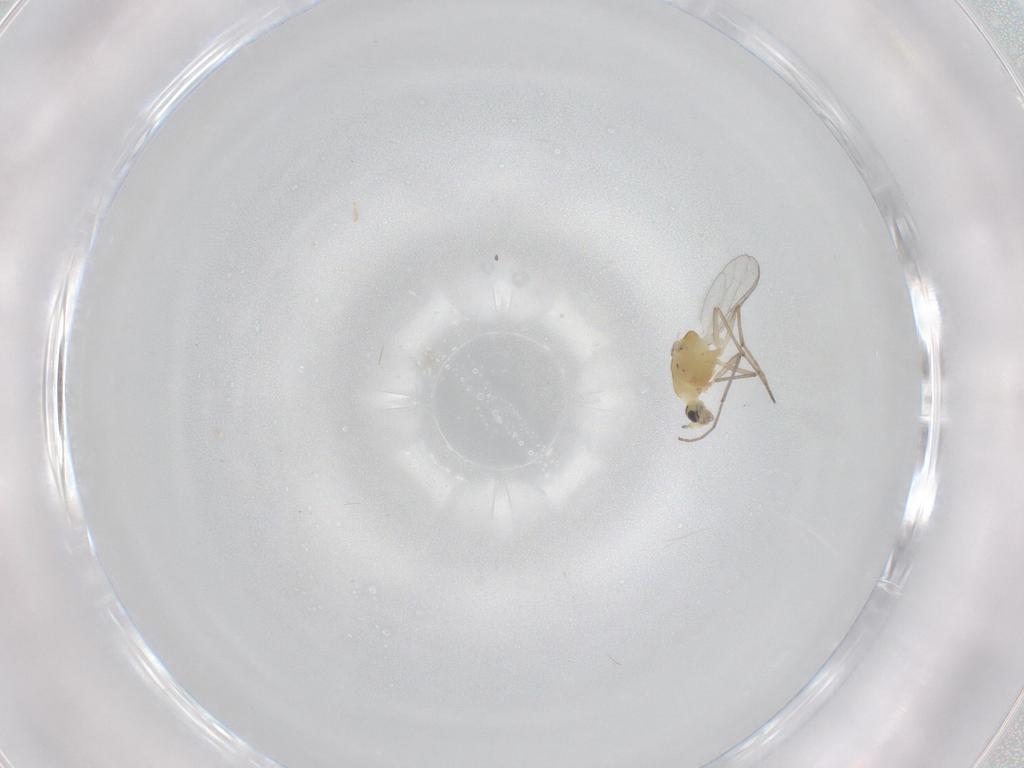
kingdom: Animalia
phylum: Arthropoda
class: Insecta
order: Diptera
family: Chironomidae
